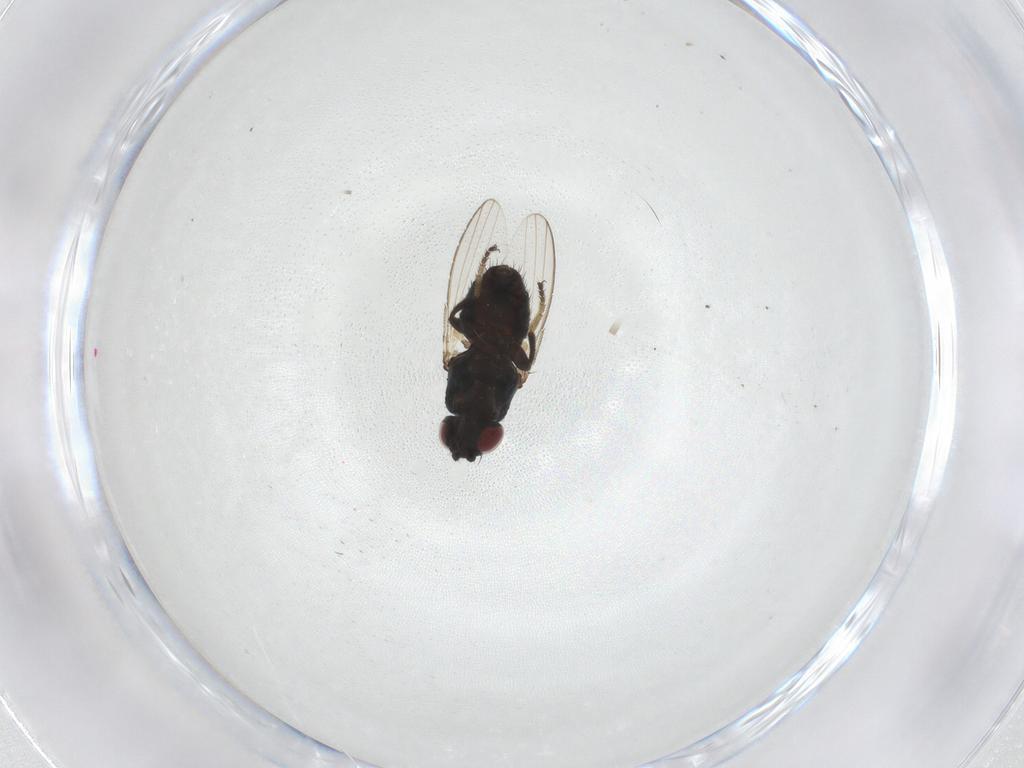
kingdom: Animalia
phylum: Arthropoda
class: Insecta
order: Diptera
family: Milichiidae
